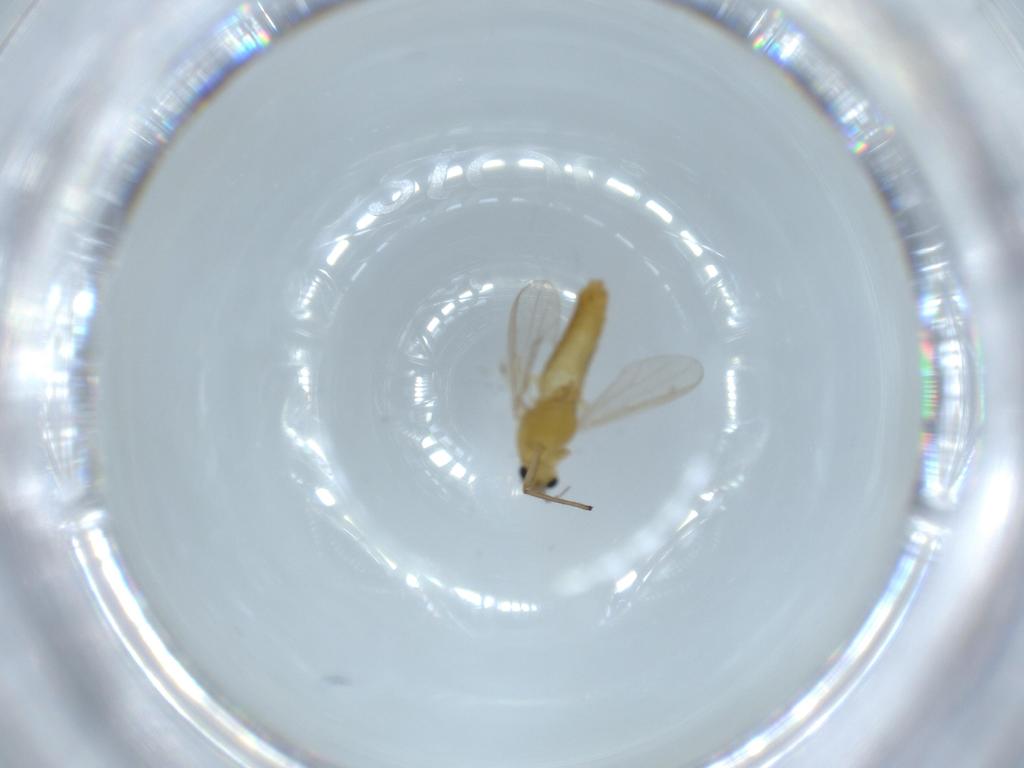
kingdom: Animalia
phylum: Arthropoda
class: Insecta
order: Diptera
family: Chironomidae
